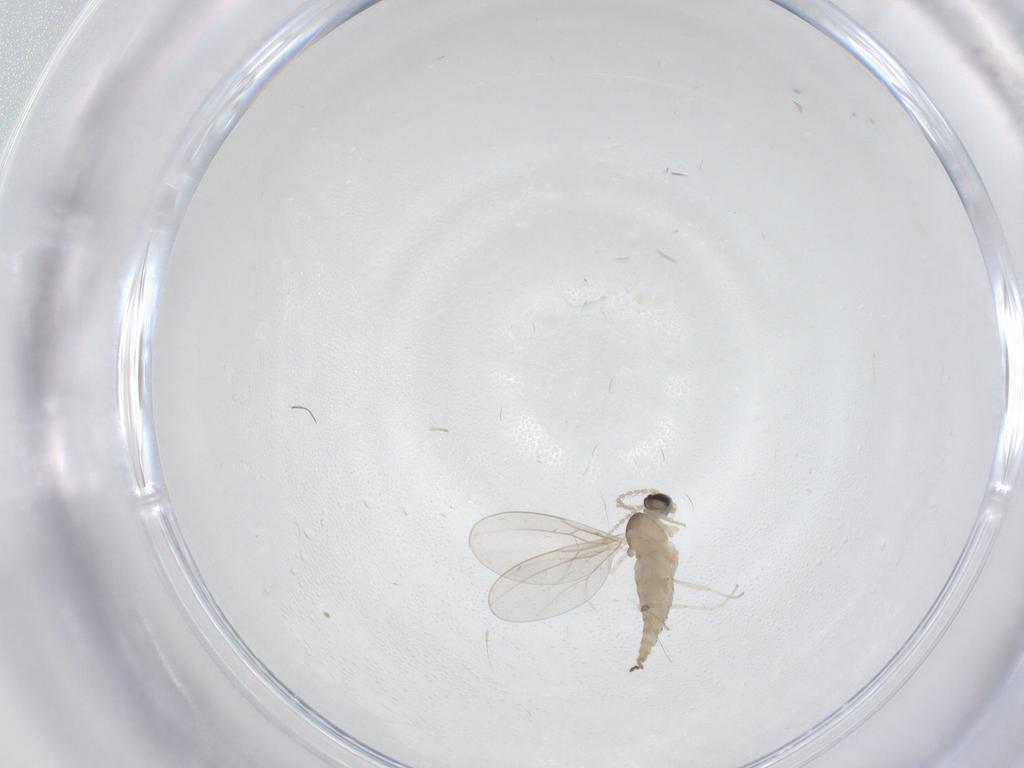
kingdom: Animalia
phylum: Arthropoda
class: Insecta
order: Diptera
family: Cecidomyiidae
